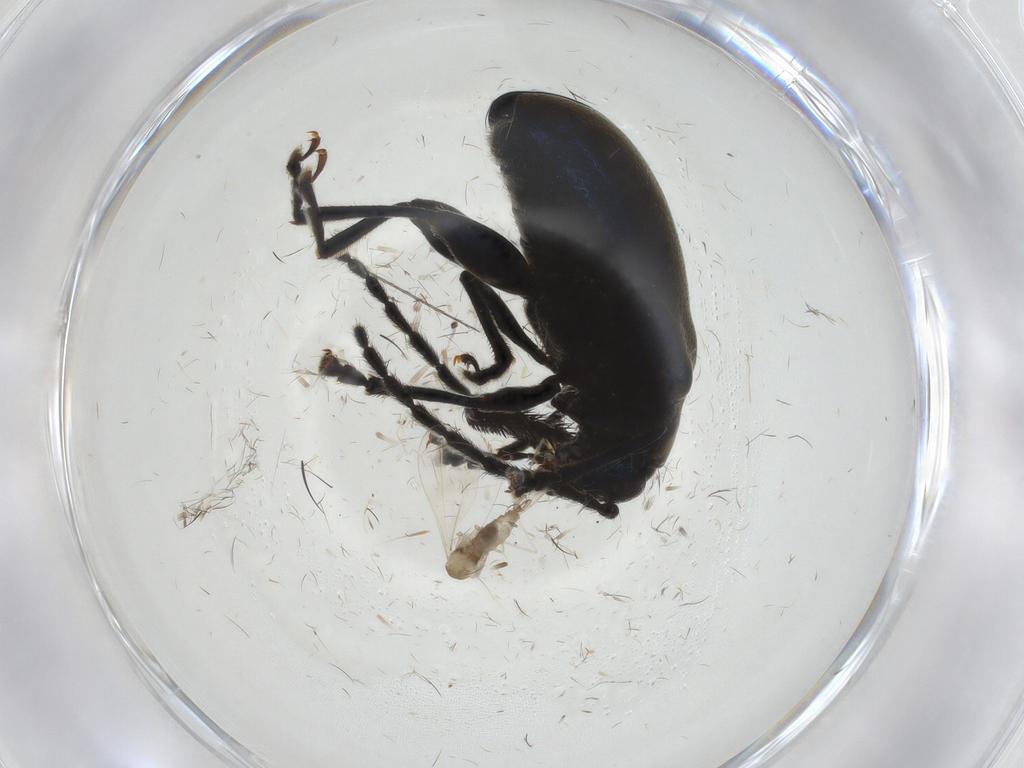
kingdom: Animalia
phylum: Arthropoda
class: Insecta
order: Coleoptera
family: Chrysomelidae
